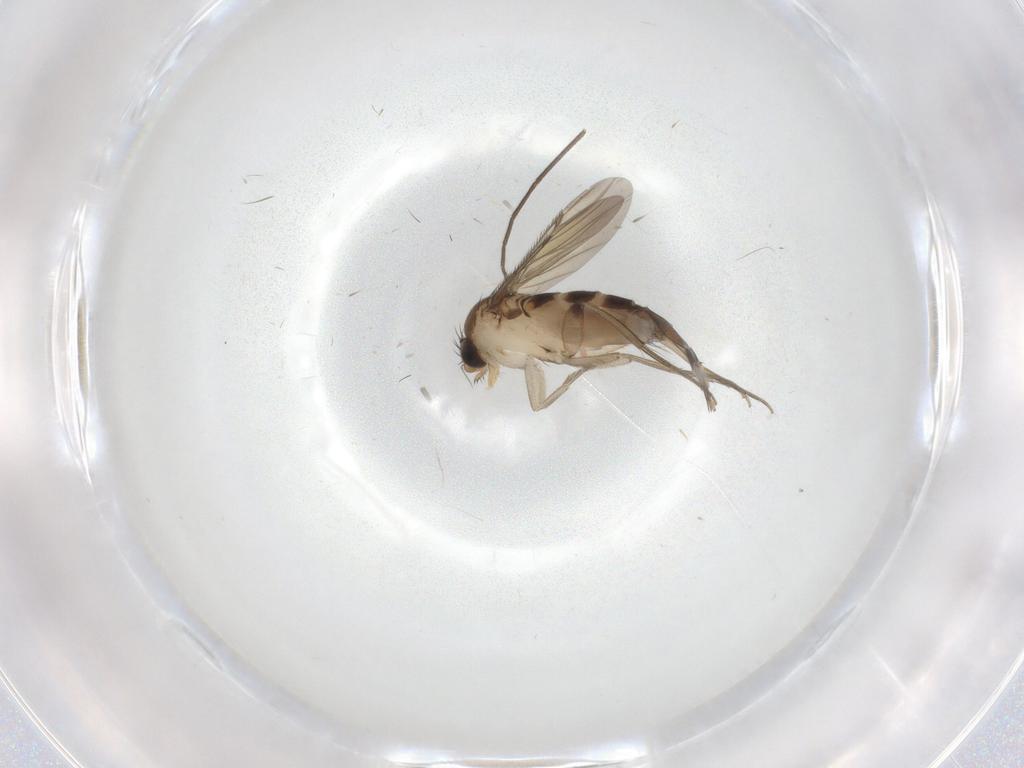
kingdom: Animalia
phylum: Arthropoda
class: Insecta
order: Diptera
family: Phoridae
